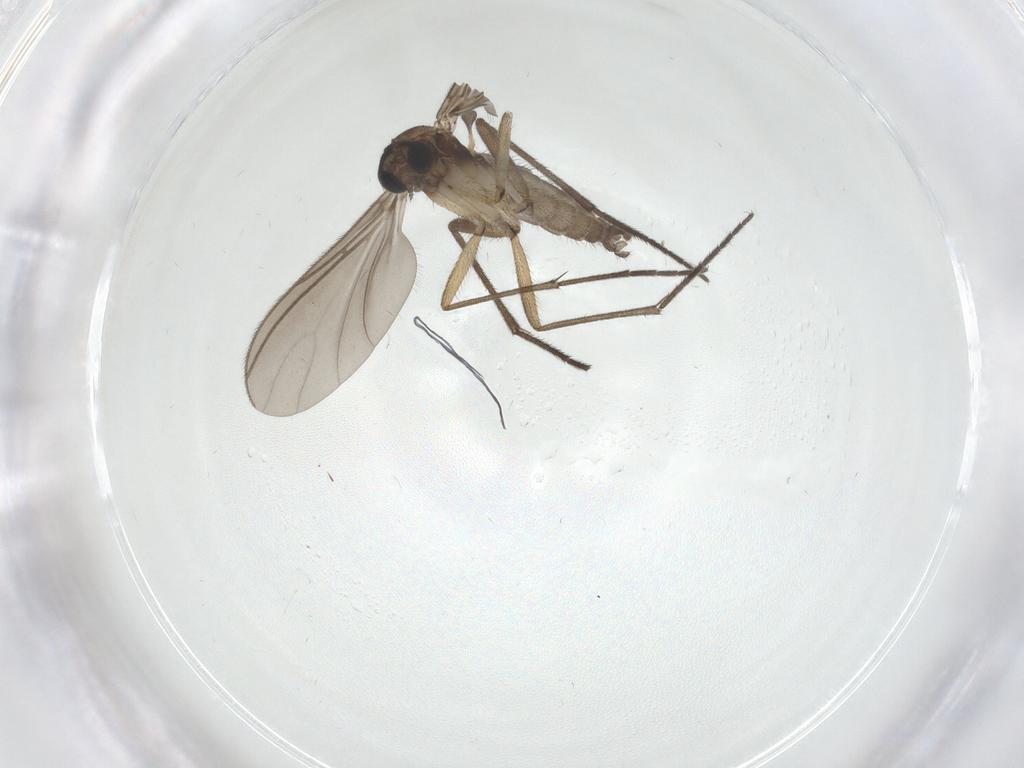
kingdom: Animalia
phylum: Arthropoda
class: Insecta
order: Diptera
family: Sciaridae
